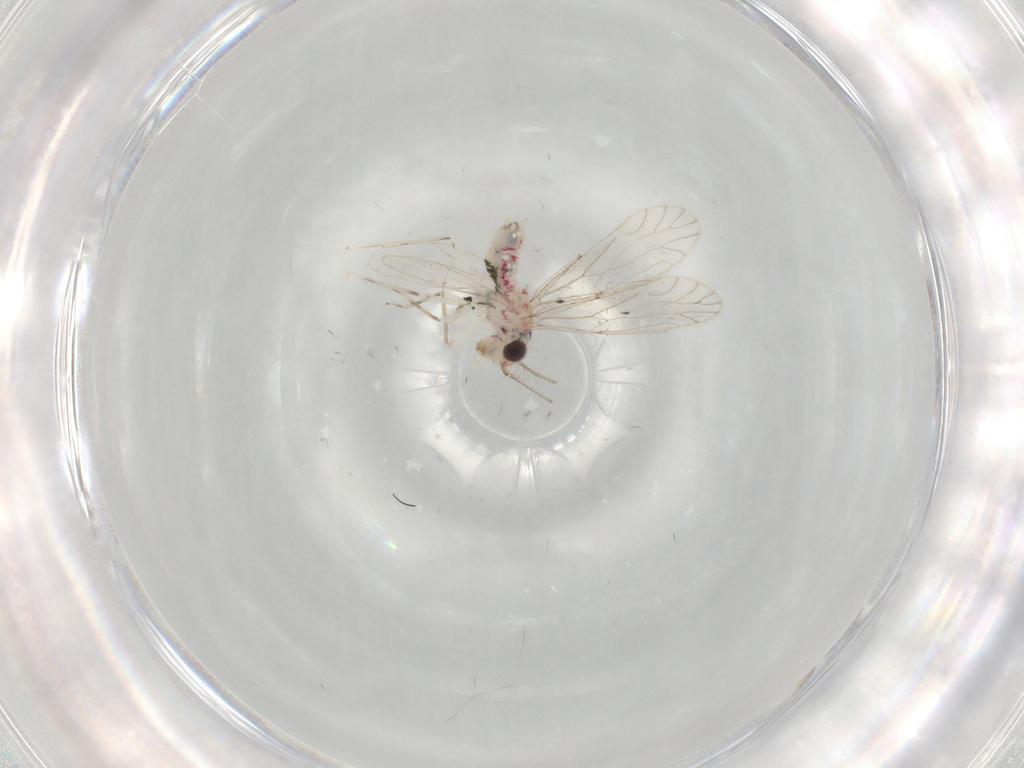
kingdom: Animalia
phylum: Arthropoda
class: Insecta
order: Psocodea
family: Caeciliusidae
